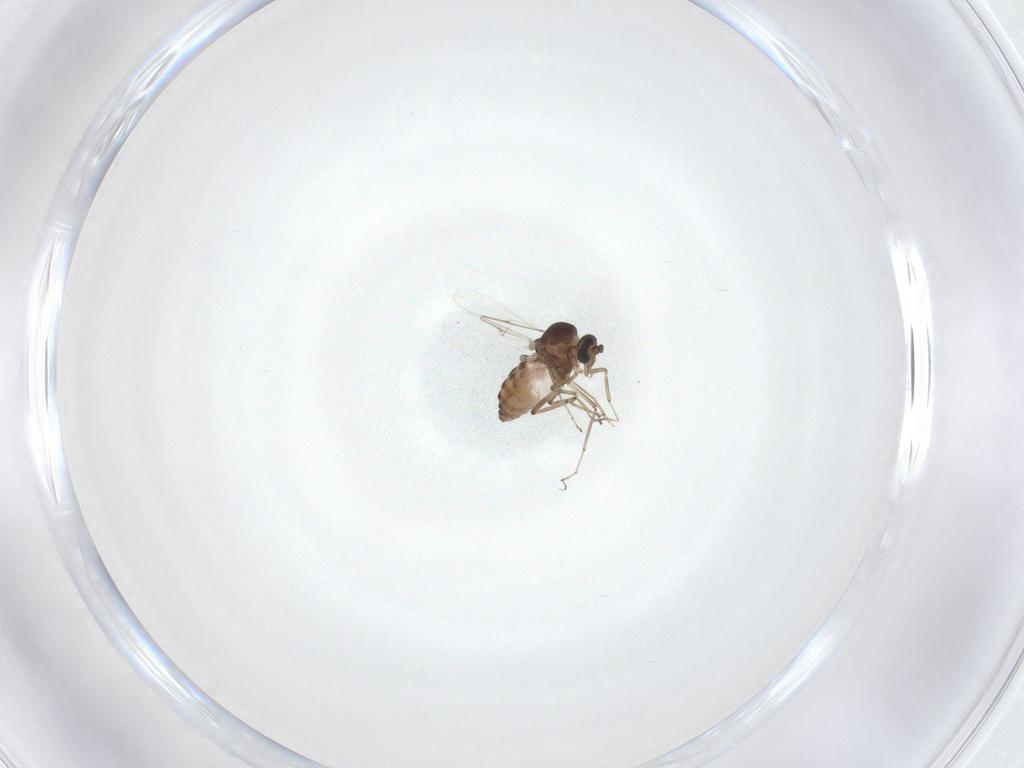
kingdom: Animalia
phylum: Arthropoda
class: Insecta
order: Diptera
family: Ceratopogonidae
